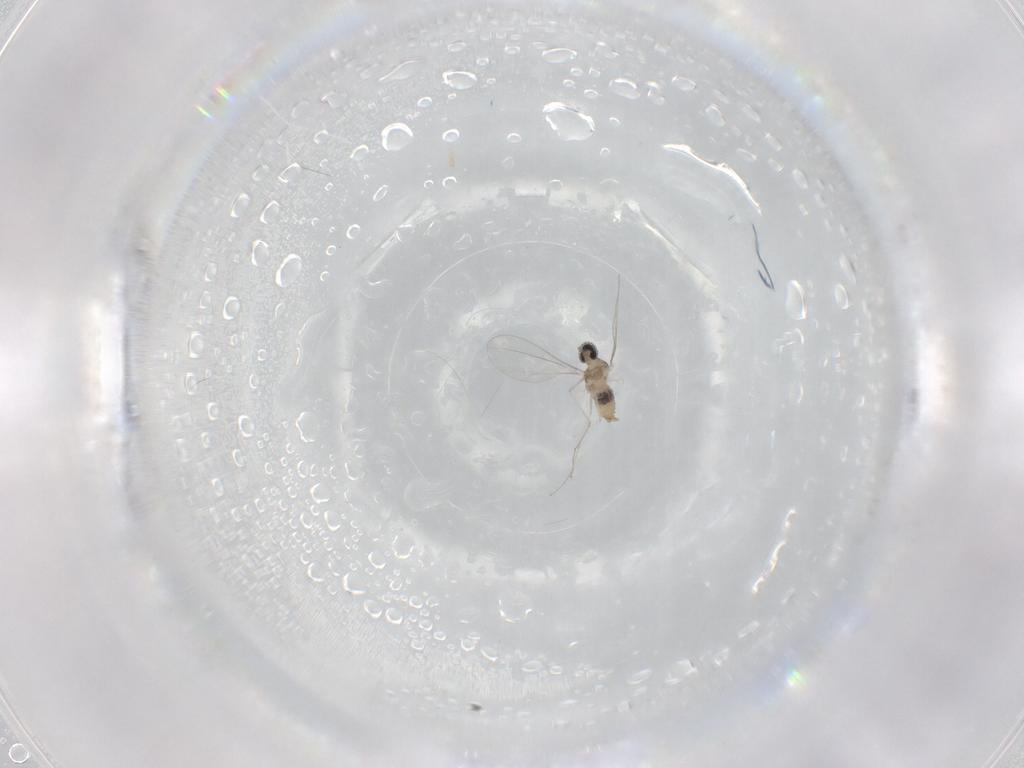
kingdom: Animalia
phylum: Arthropoda
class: Insecta
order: Diptera
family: Cecidomyiidae
